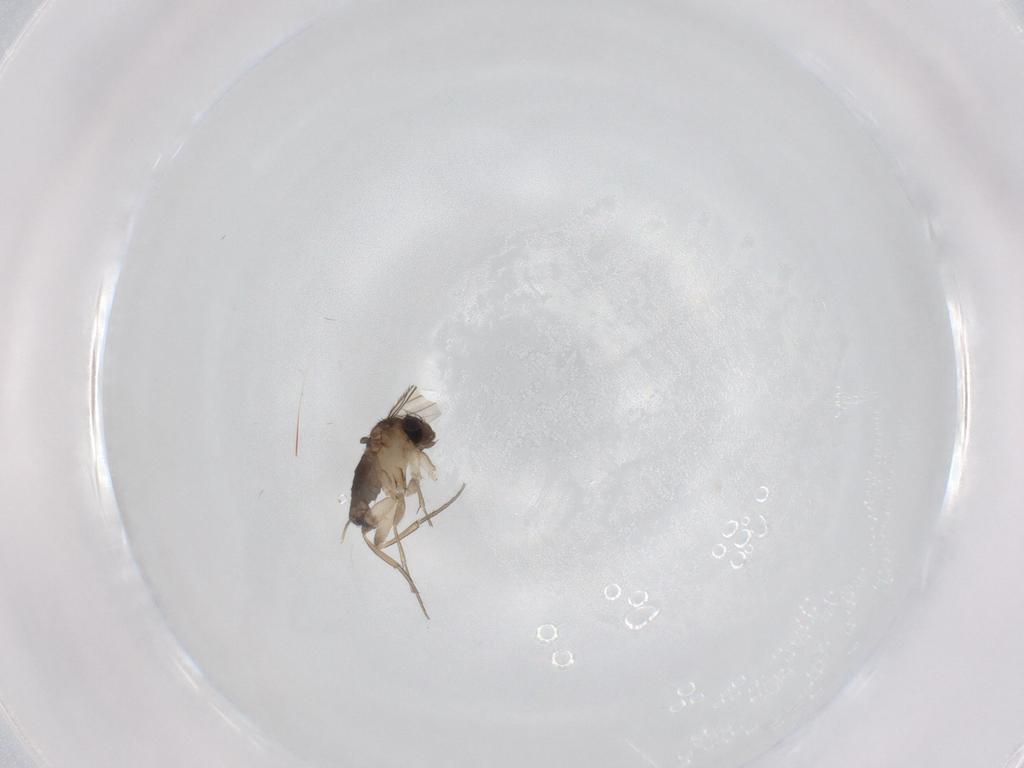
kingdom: Animalia
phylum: Arthropoda
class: Insecta
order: Diptera
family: Phoridae
